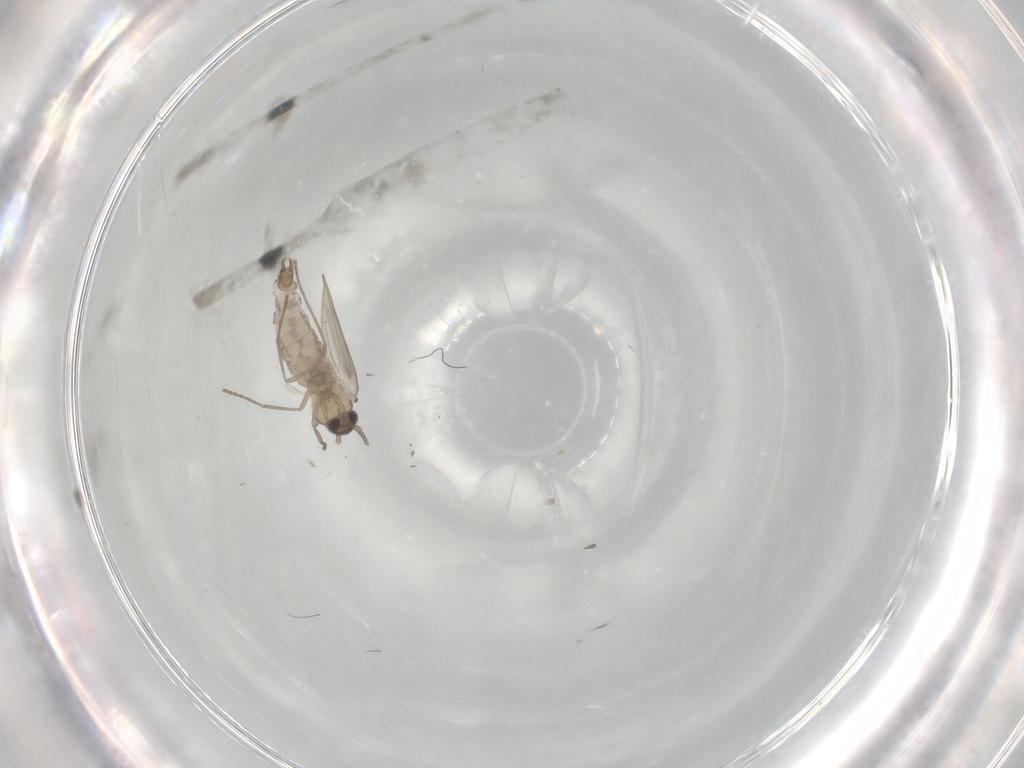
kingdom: Animalia
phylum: Arthropoda
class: Insecta
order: Diptera
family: Psychodidae
